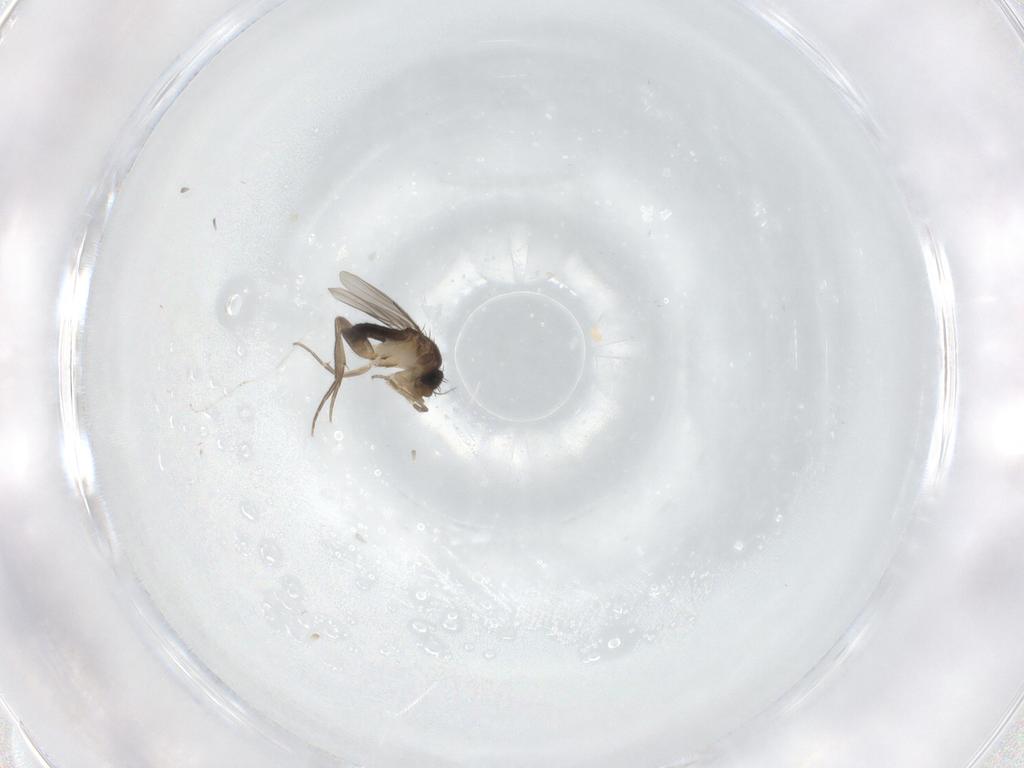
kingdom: Animalia
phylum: Arthropoda
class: Insecta
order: Diptera
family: Phoridae
